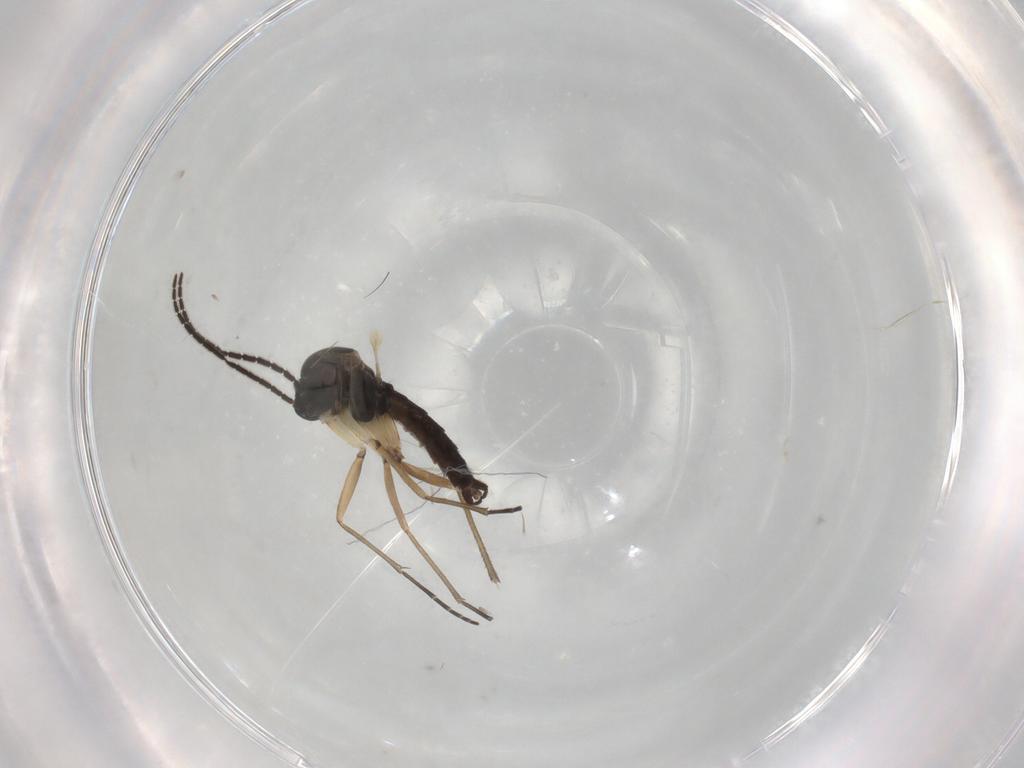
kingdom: Animalia
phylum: Arthropoda
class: Insecta
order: Diptera
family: Sciaridae
